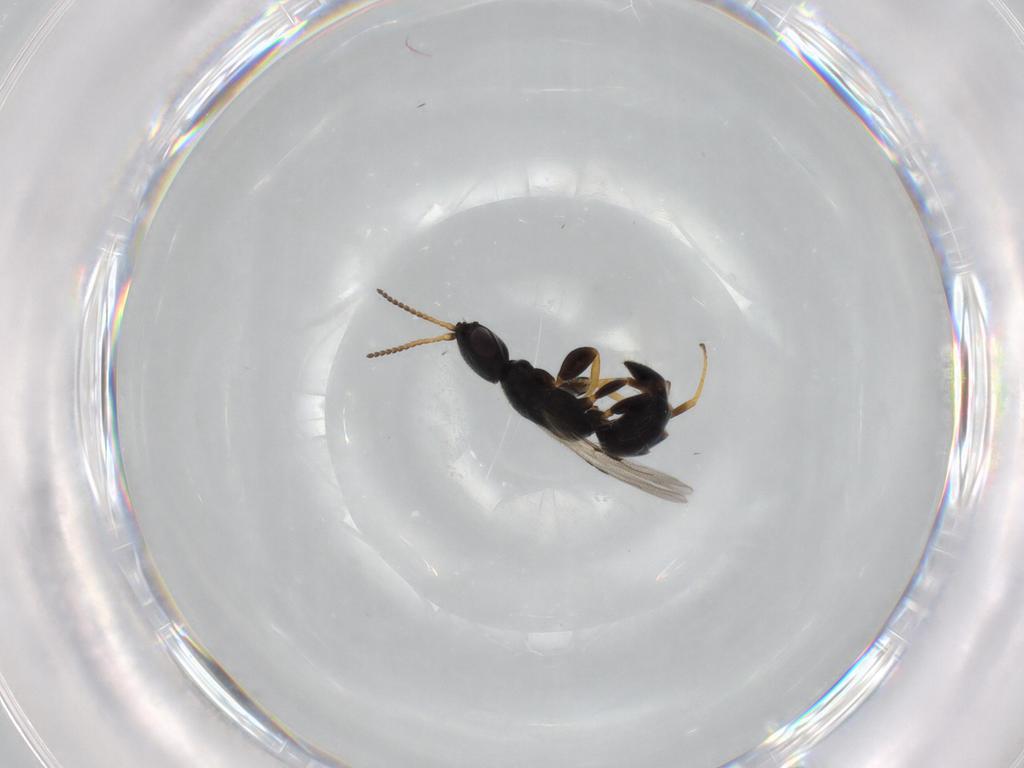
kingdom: Animalia
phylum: Arthropoda
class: Insecta
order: Hymenoptera
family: Bethylidae
